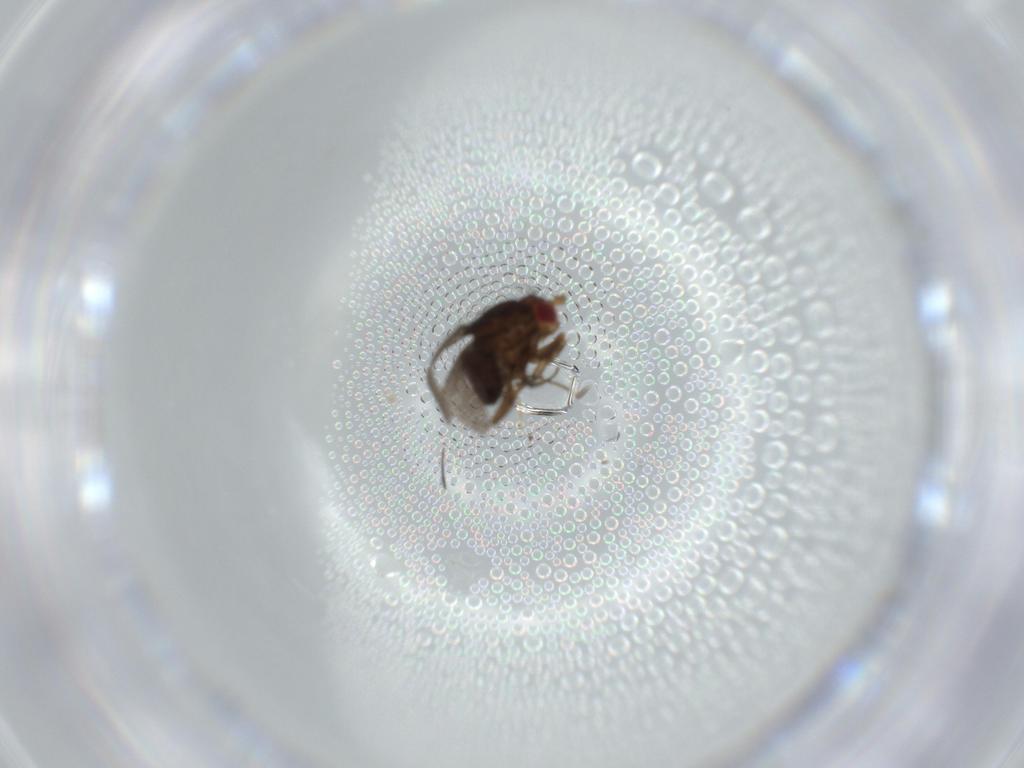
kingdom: Animalia
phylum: Arthropoda
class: Insecta
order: Diptera
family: Sphaeroceridae
